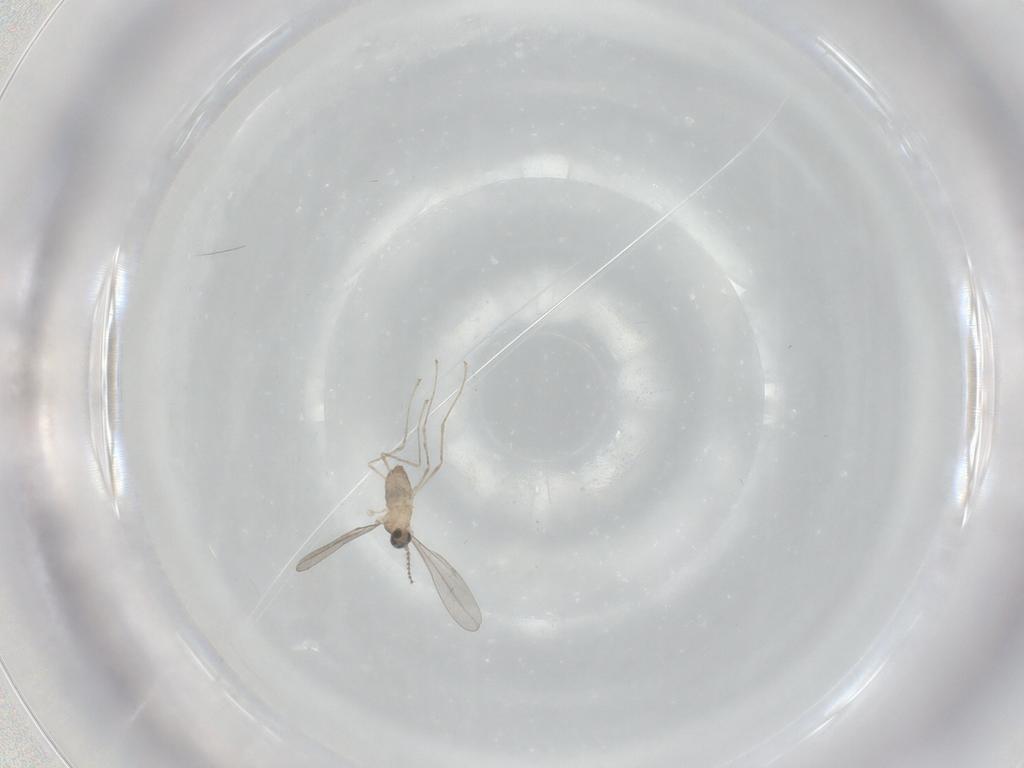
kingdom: Animalia
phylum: Arthropoda
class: Insecta
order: Diptera
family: Cecidomyiidae
